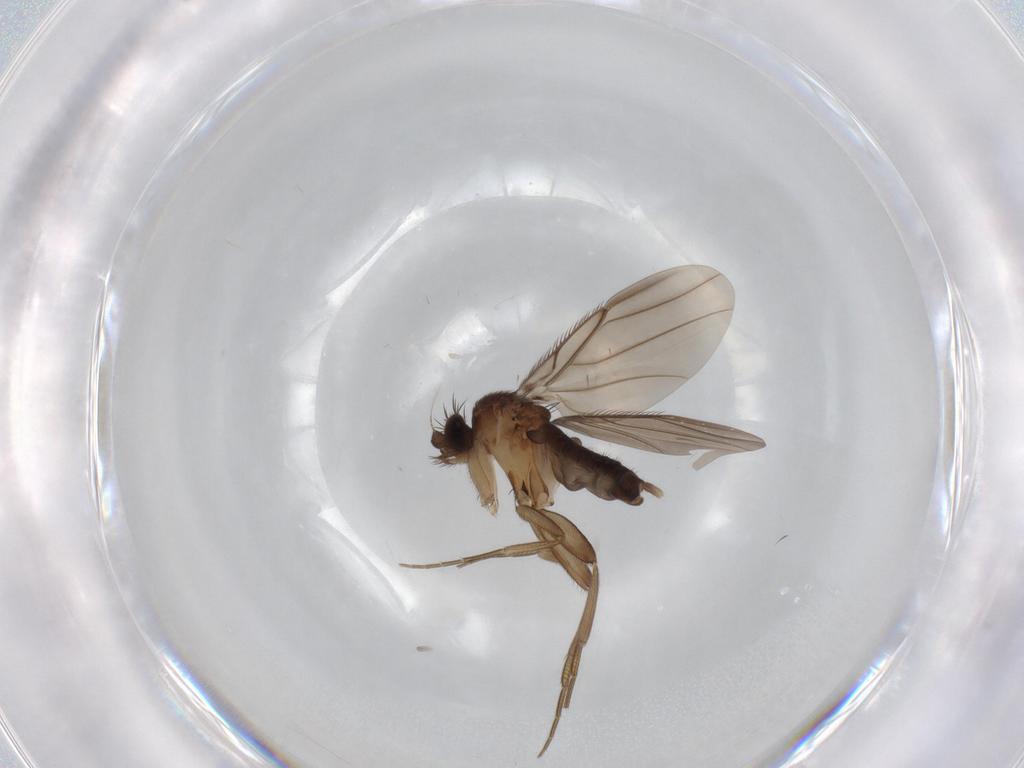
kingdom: Animalia
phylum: Arthropoda
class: Insecta
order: Diptera
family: Phoridae
